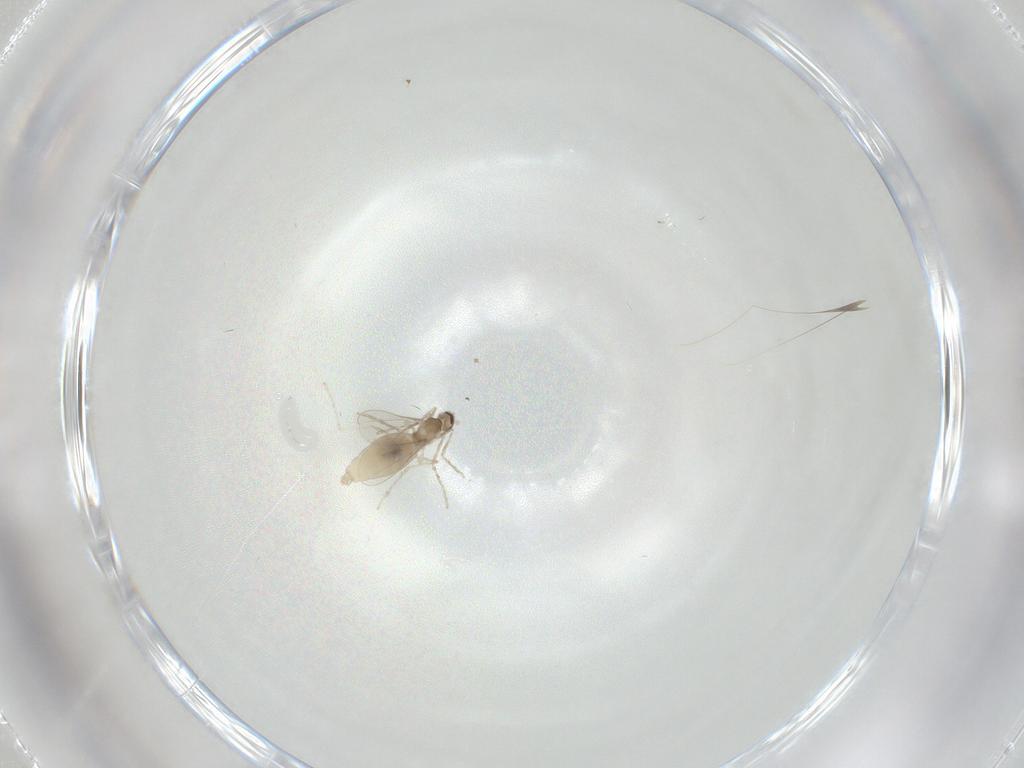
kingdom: Animalia
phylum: Arthropoda
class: Insecta
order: Diptera
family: Cecidomyiidae
